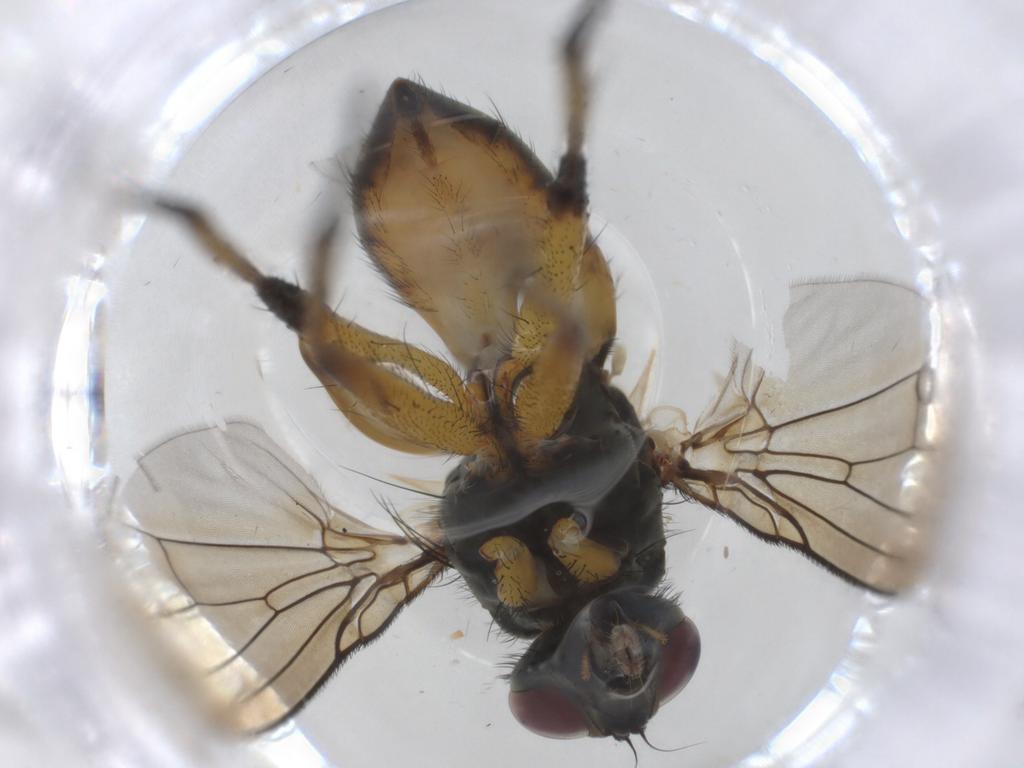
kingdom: Animalia
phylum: Arthropoda
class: Insecta
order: Diptera
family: Muscidae
